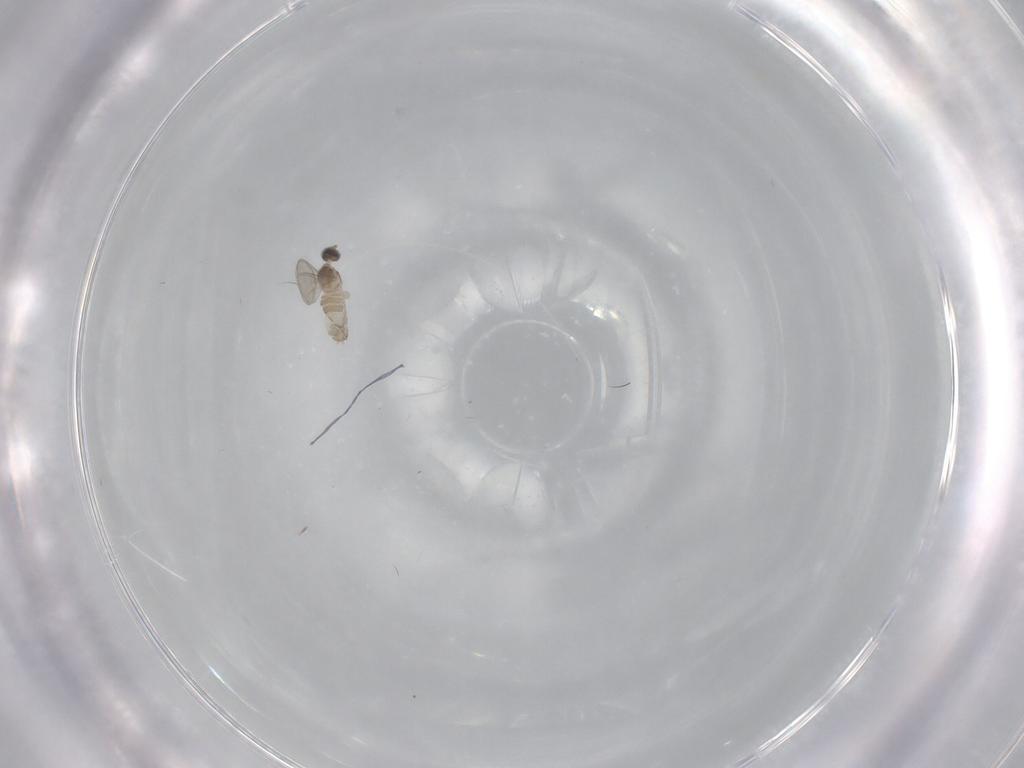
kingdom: Animalia
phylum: Arthropoda
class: Insecta
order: Diptera
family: Cecidomyiidae
